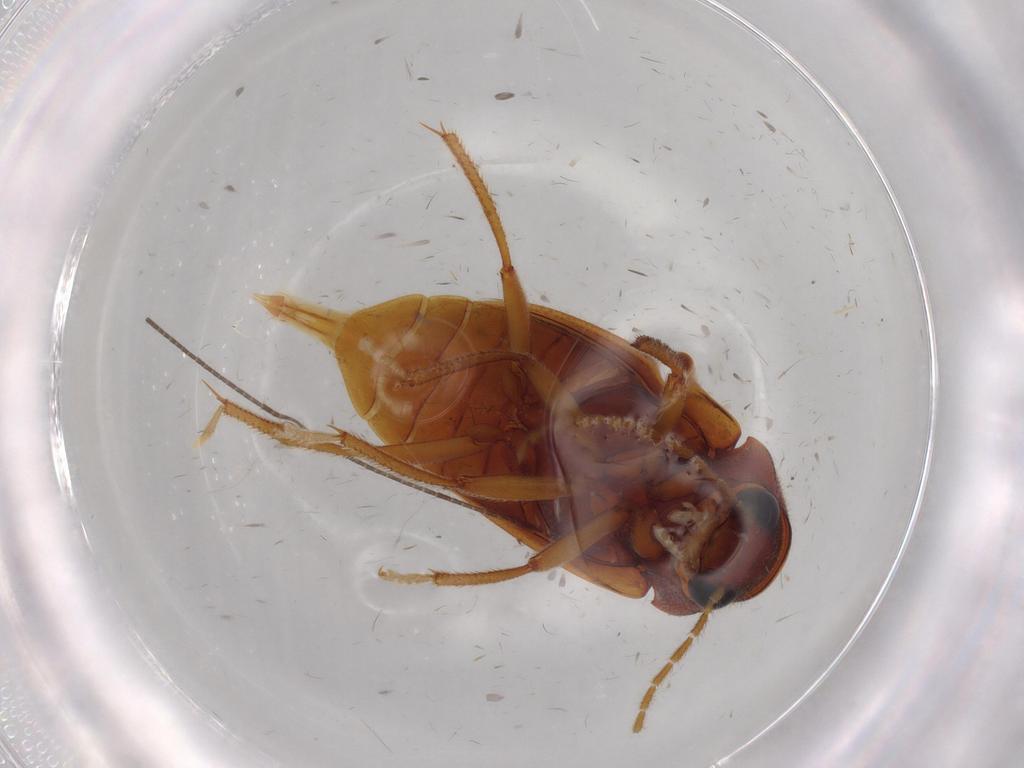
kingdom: Animalia
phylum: Arthropoda
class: Insecta
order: Coleoptera
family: Ptilodactylidae
